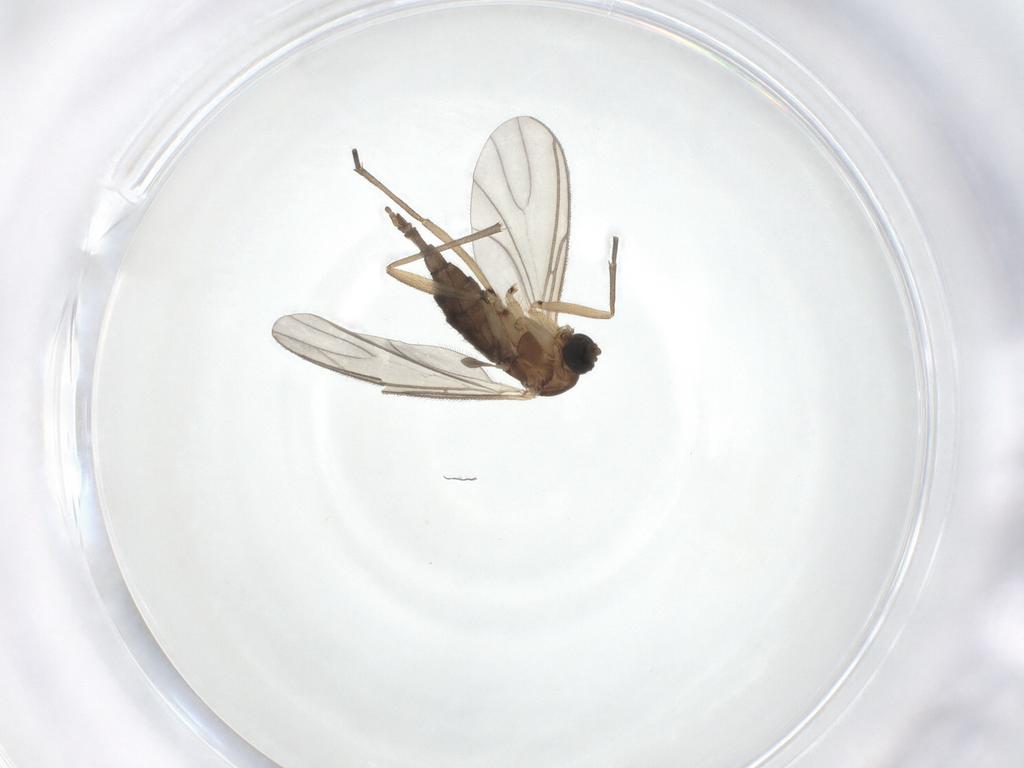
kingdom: Animalia
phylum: Arthropoda
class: Insecta
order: Diptera
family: Sciaridae
